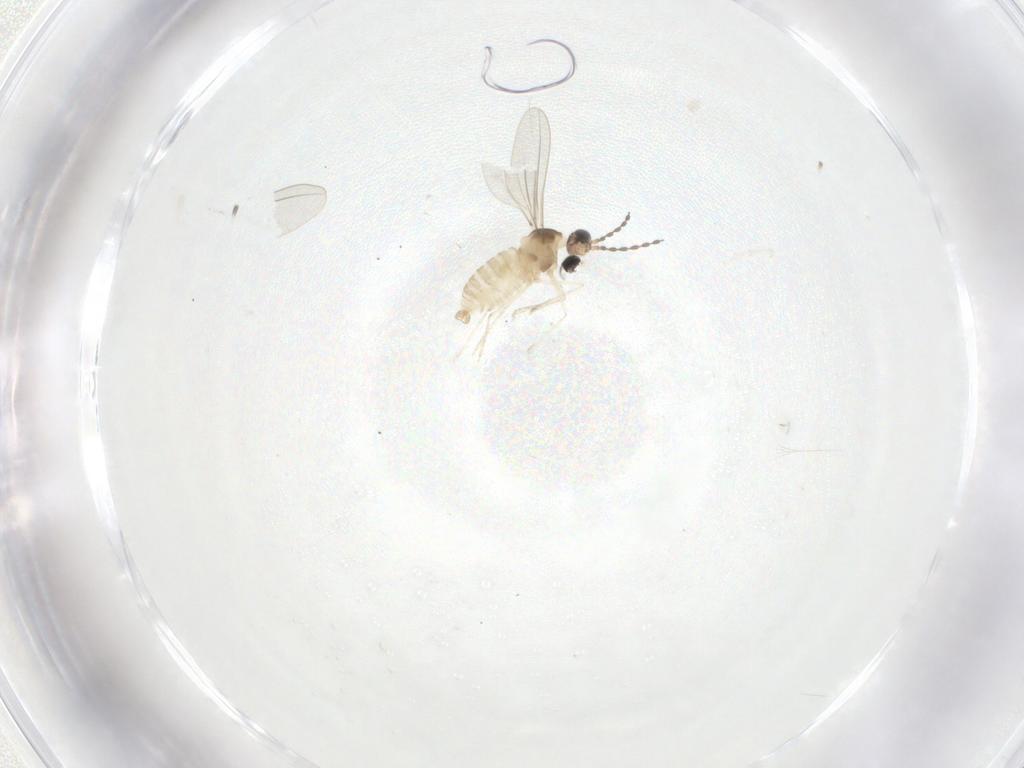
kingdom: Animalia
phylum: Arthropoda
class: Insecta
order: Diptera
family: Cecidomyiidae
